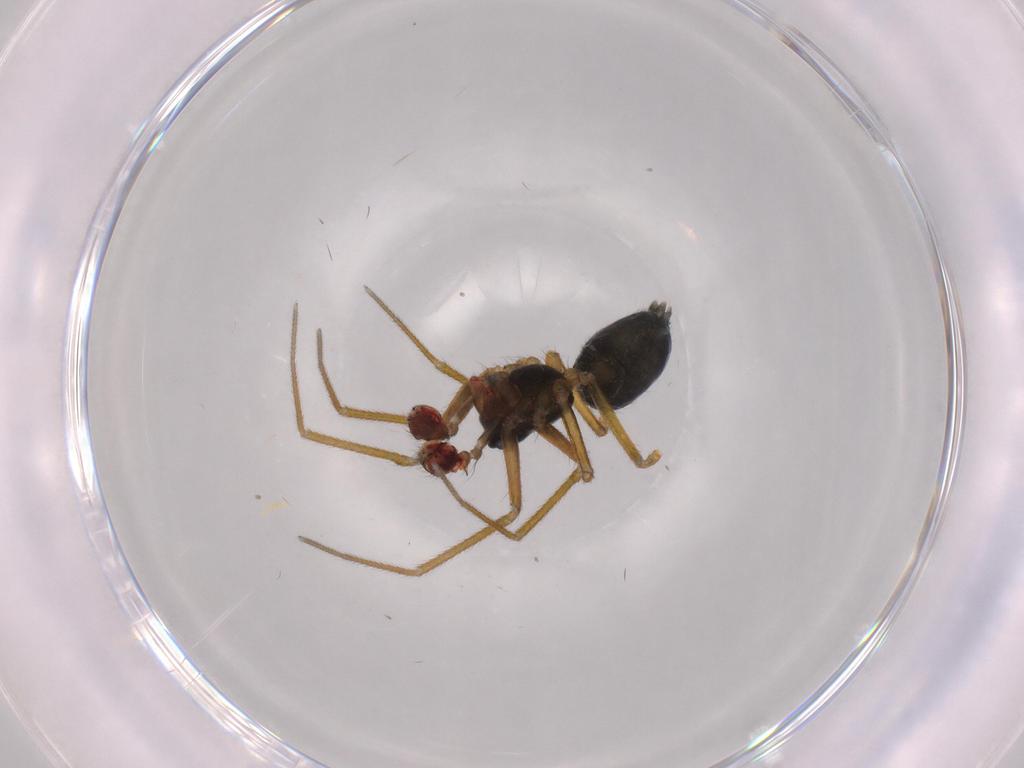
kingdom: Animalia
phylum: Arthropoda
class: Arachnida
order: Araneae
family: Linyphiidae
